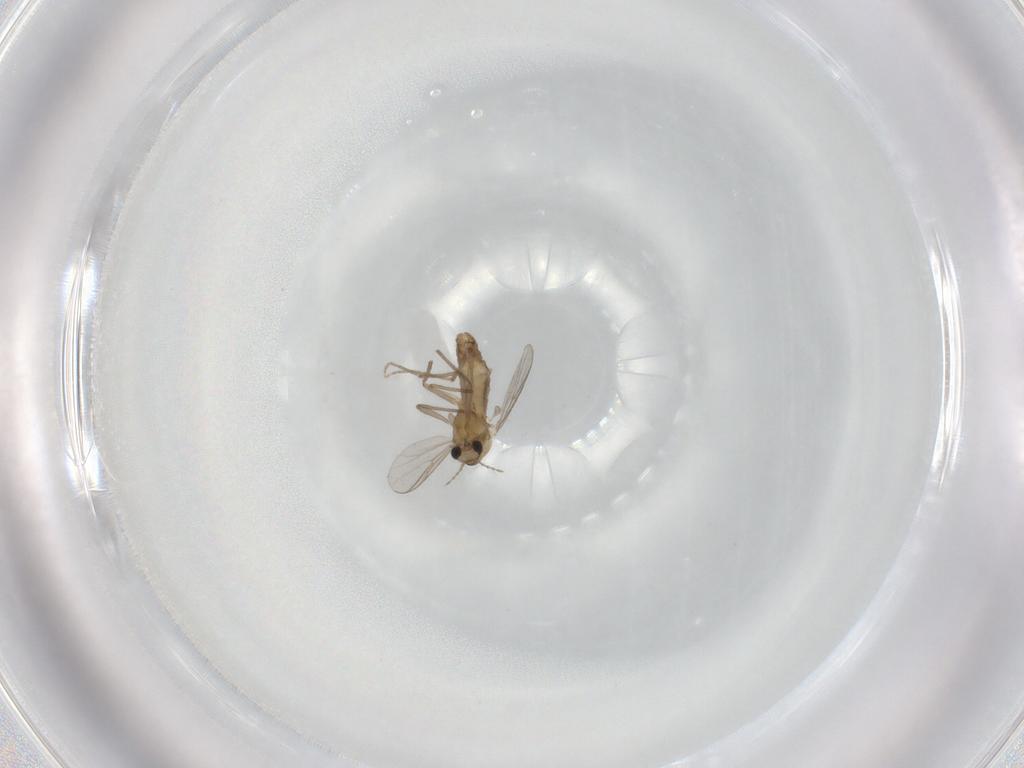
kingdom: Animalia
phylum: Arthropoda
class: Insecta
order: Diptera
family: Chironomidae
